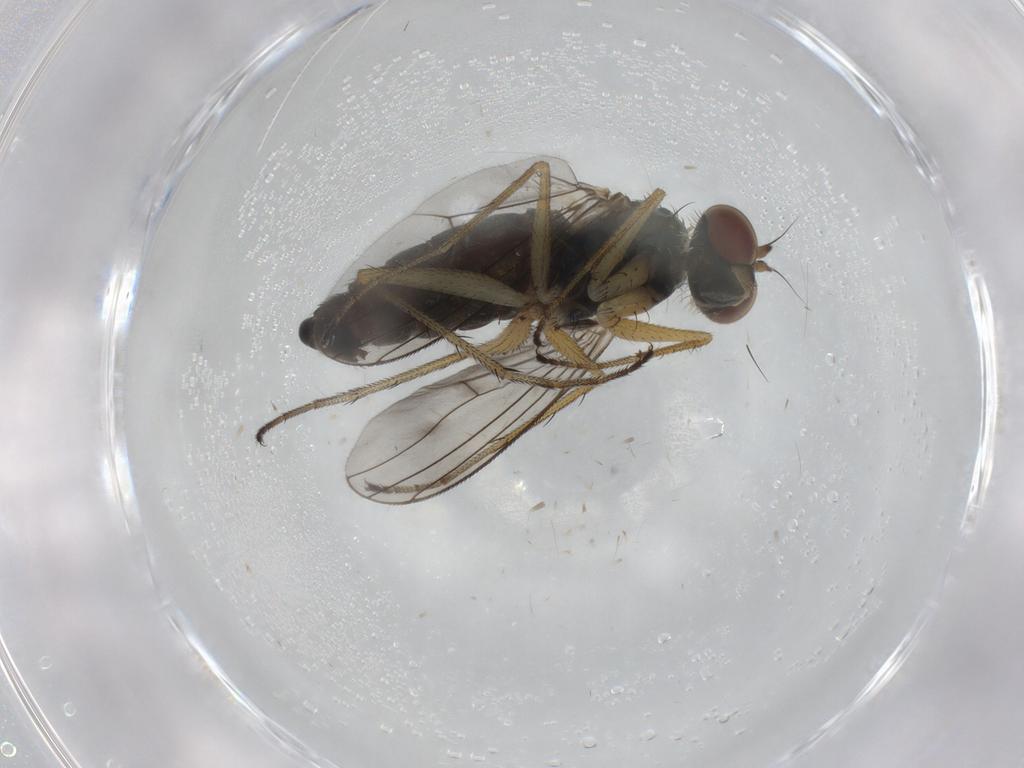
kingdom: Animalia
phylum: Arthropoda
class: Insecta
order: Diptera
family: Dolichopodidae
